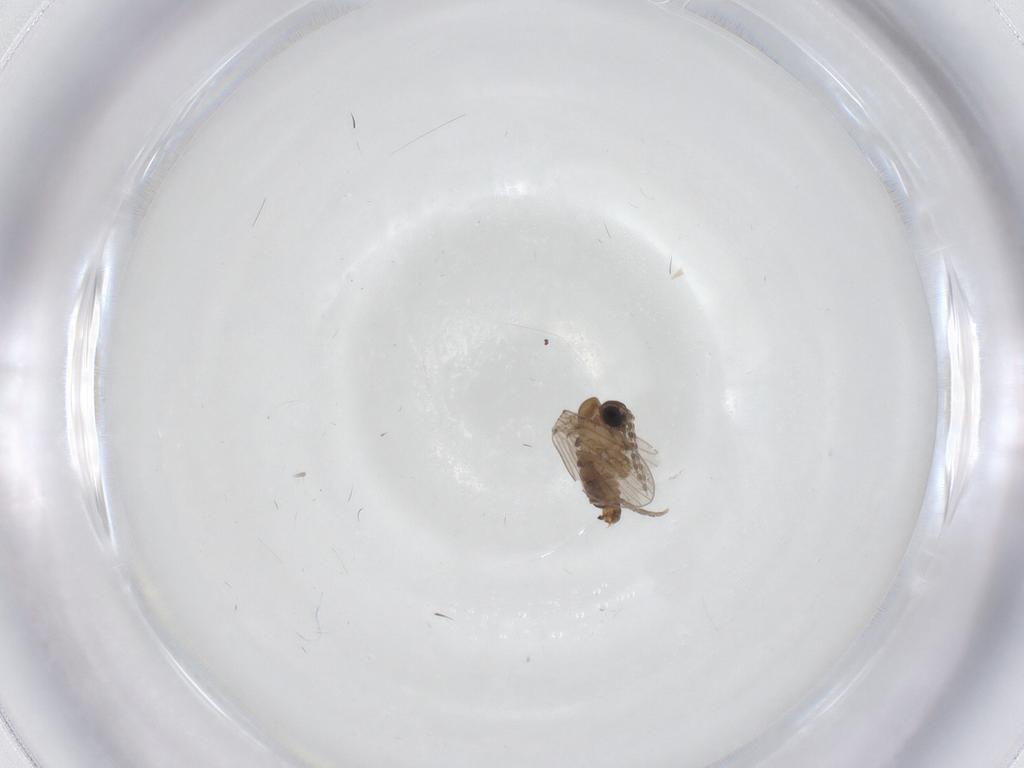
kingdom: Animalia
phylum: Arthropoda
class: Insecta
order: Diptera
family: Psychodidae
